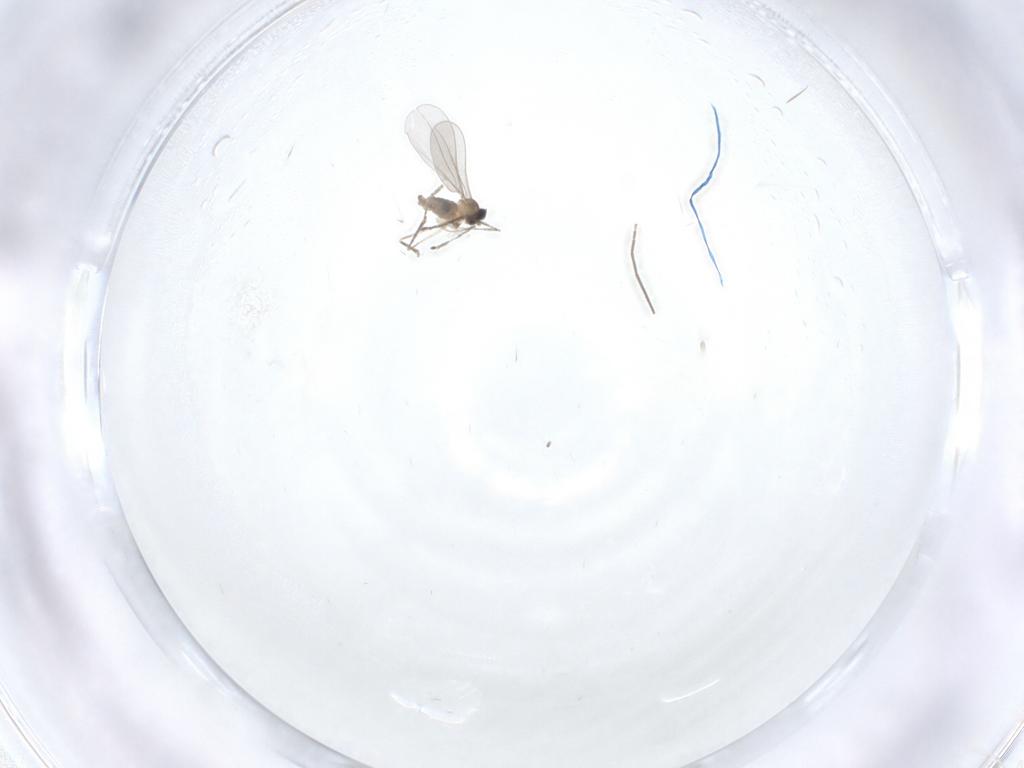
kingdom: Animalia
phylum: Arthropoda
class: Insecta
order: Diptera
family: Cecidomyiidae
